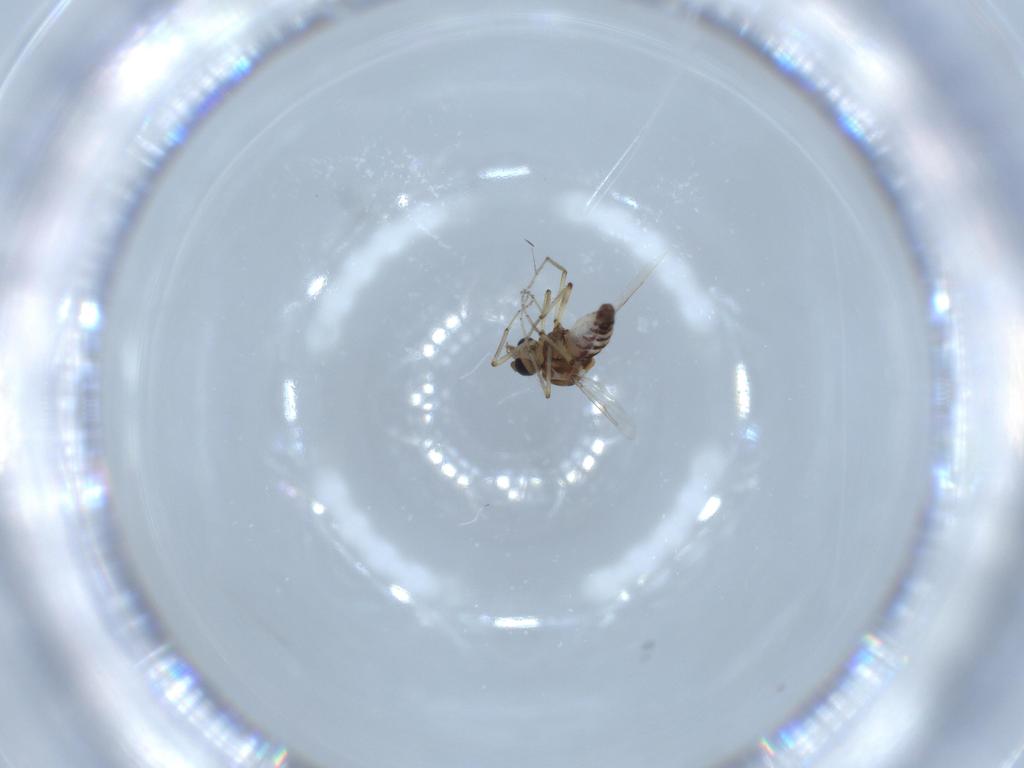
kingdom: Animalia
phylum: Arthropoda
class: Insecta
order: Diptera
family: Ceratopogonidae
